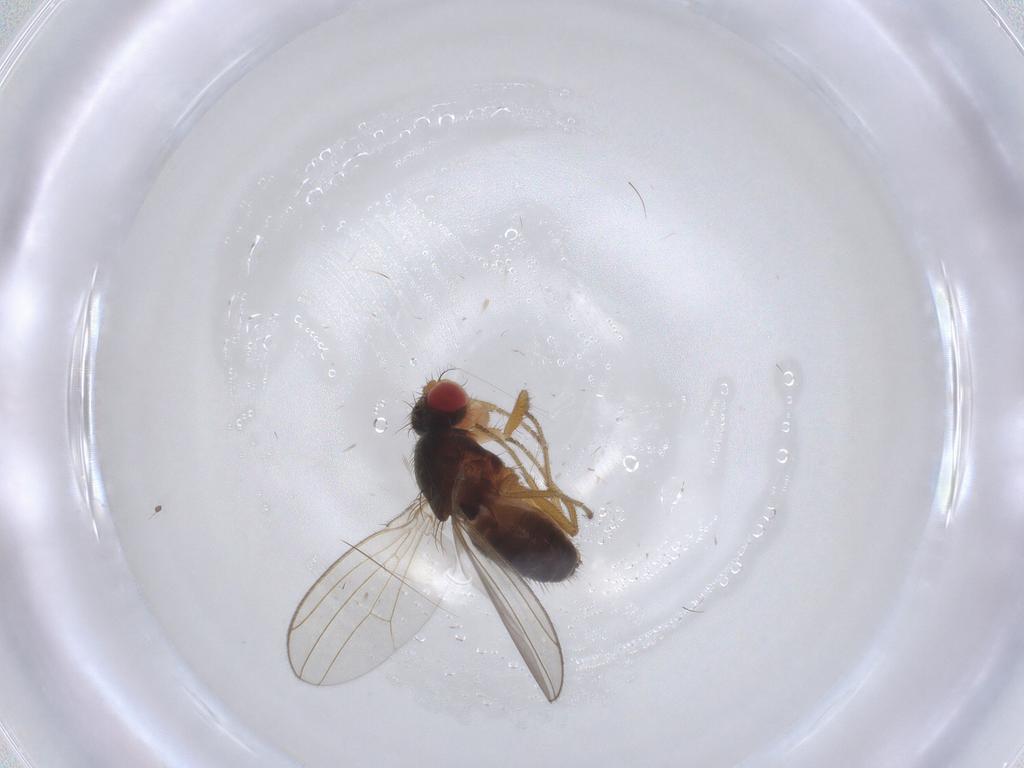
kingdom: Animalia
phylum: Arthropoda
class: Insecta
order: Diptera
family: Drosophilidae
